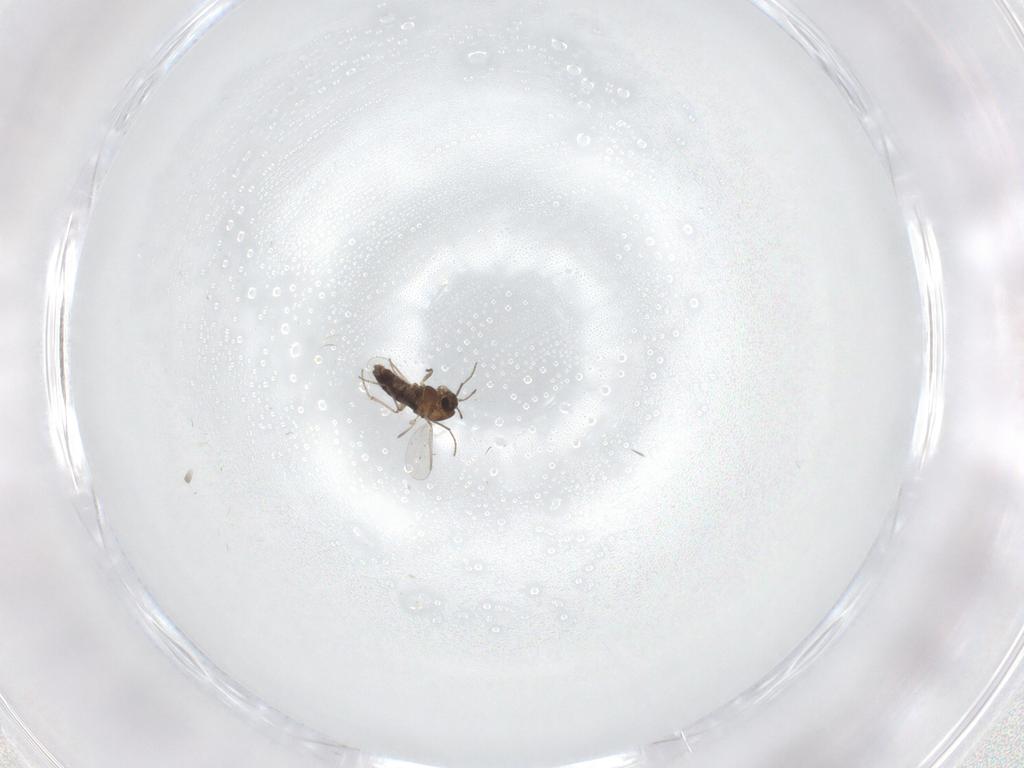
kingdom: Animalia
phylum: Arthropoda
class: Insecta
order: Diptera
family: Chironomidae
